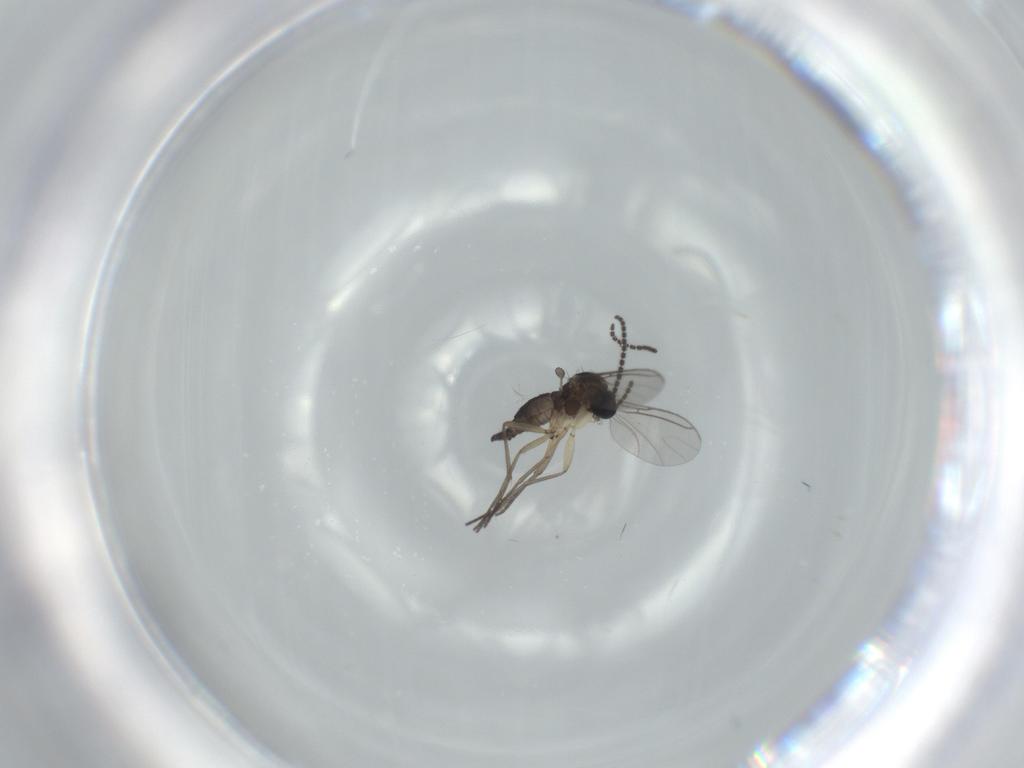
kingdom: Animalia
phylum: Arthropoda
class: Insecta
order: Diptera
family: Sciaridae
